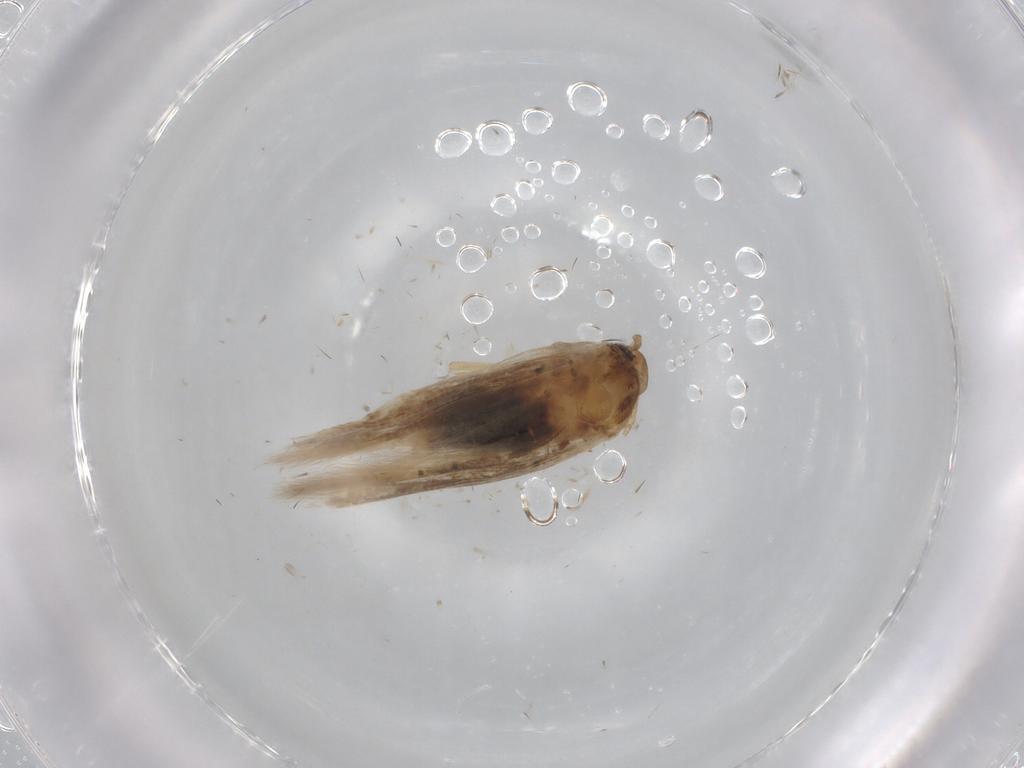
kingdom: Animalia
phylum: Arthropoda
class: Insecta
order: Lepidoptera
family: Cosmopterigidae
